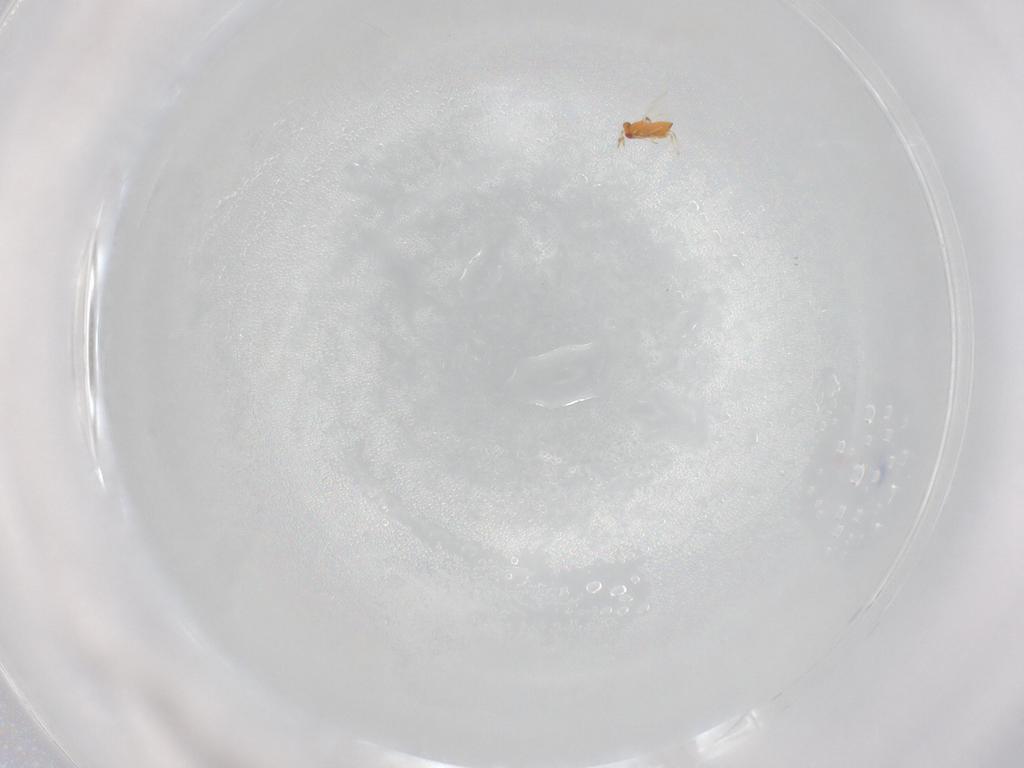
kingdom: Animalia
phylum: Arthropoda
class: Insecta
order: Hymenoptera
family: Trichogrammatidae
